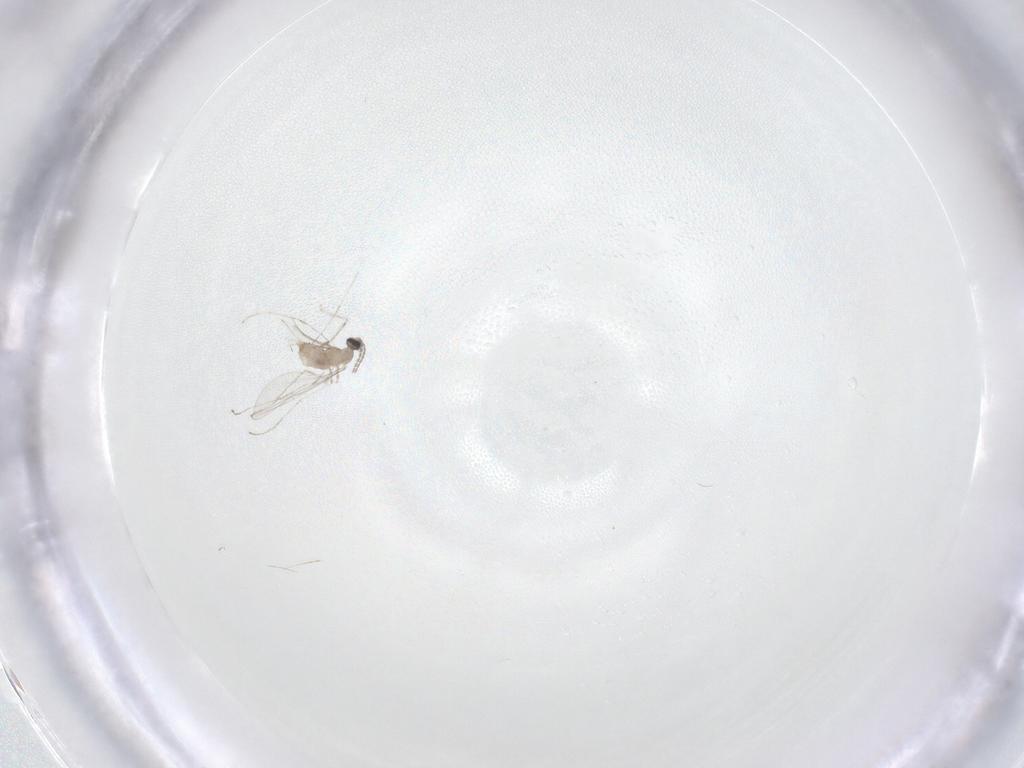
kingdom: Animalia
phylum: Arthropoda
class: Insecta
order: Diptera
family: Cecidomyiidae
